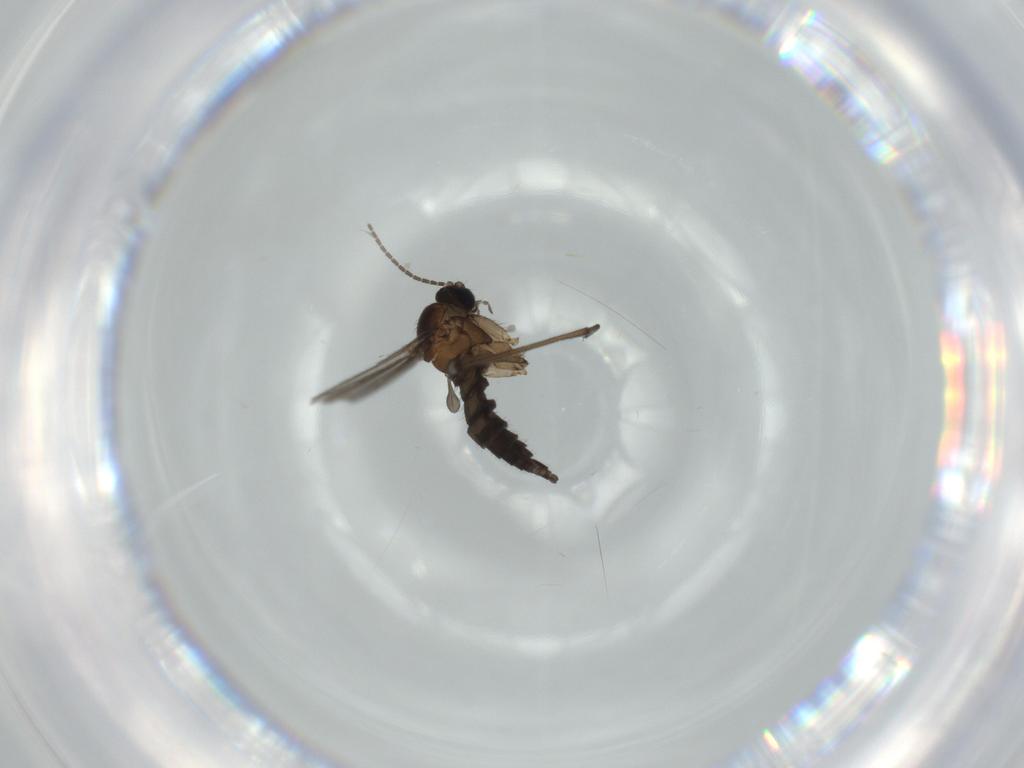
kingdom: Animalia
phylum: Arthropoda
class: Insecta
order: Diptera
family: Sciaridae
